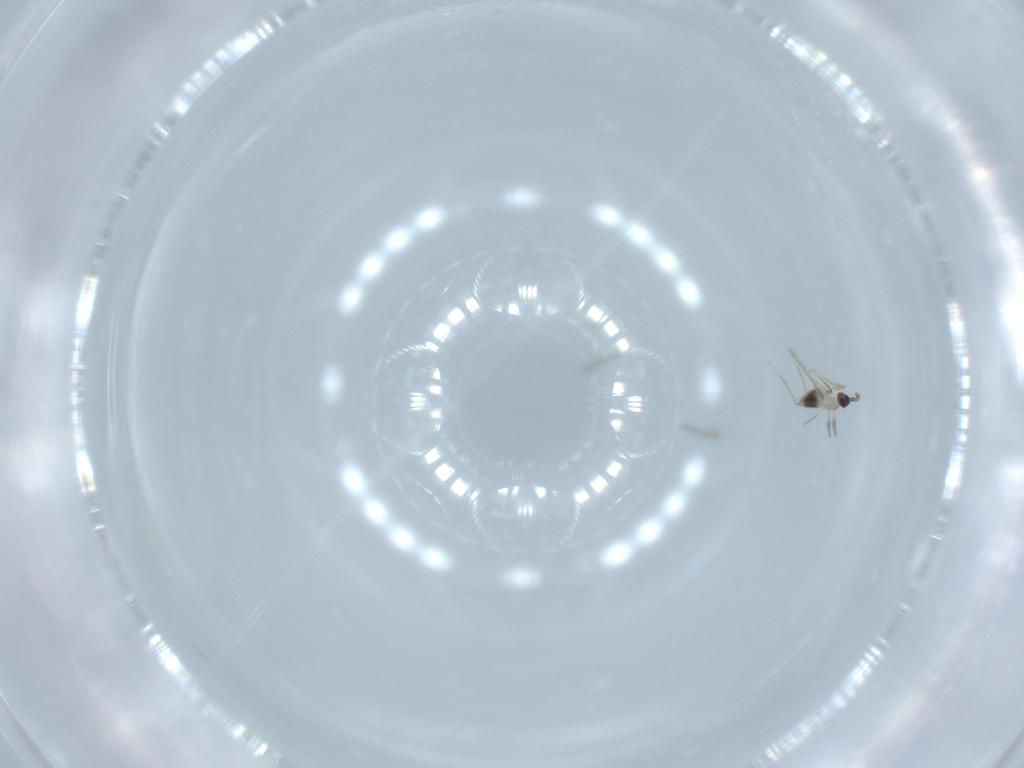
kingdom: Animalia
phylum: Arthropoda
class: Insecta
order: Hymenoptera
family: Mymaridae
